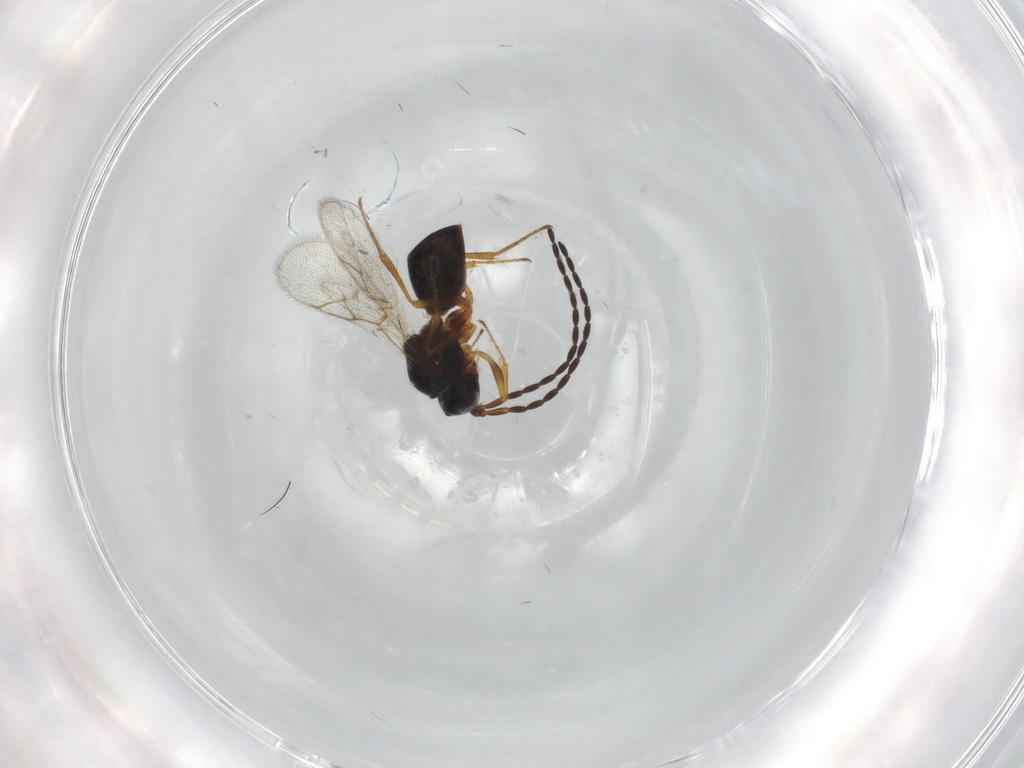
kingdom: Animalia
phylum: Arthropoda
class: Insecta
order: Hymenoptera
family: Figitidae
